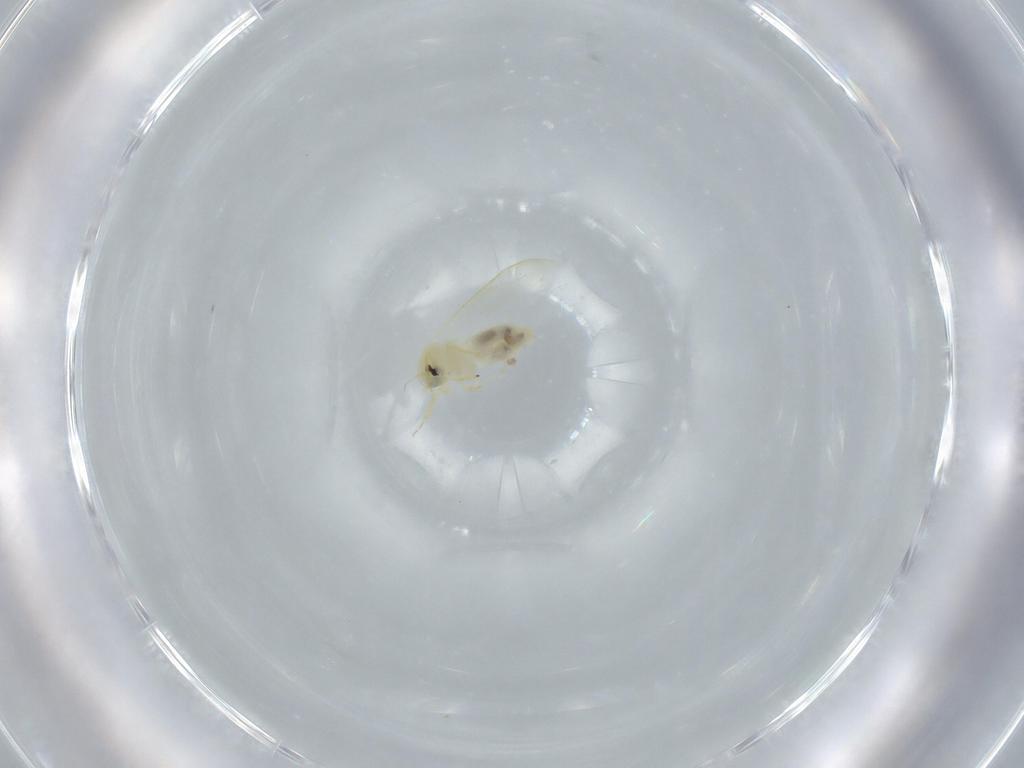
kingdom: Animalia
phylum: Arthropoda
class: Insecta
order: Hemiptera
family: Aleyrodidae
